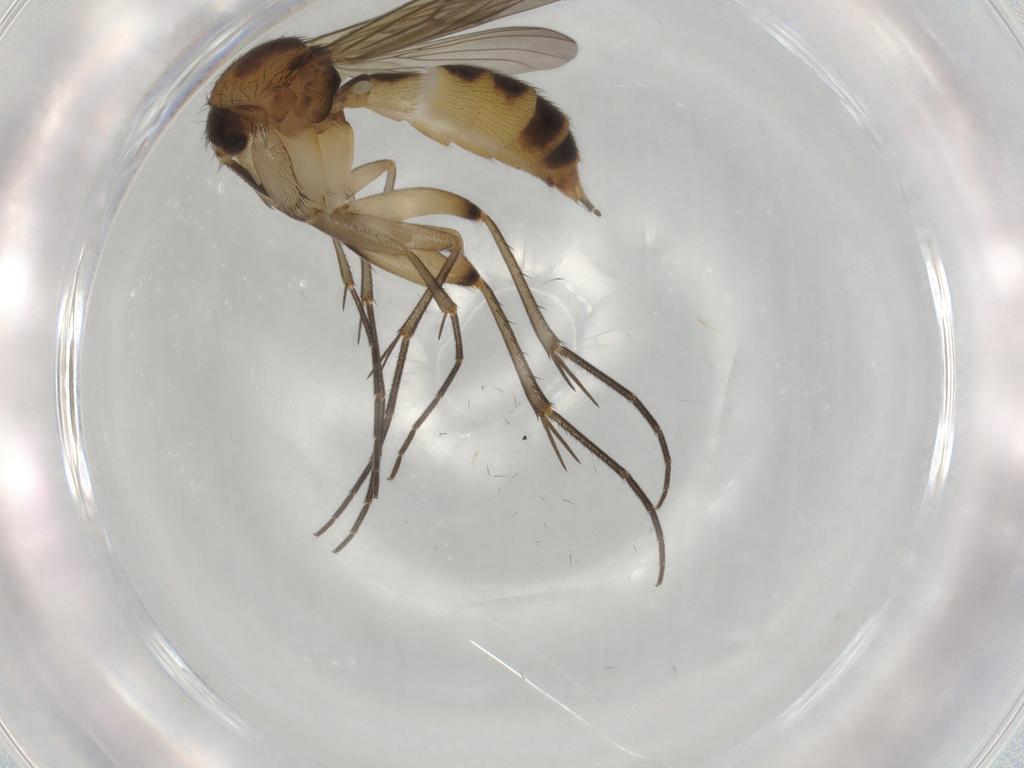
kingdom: Animalia
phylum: Arthropoda
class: Insecta
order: Diptera
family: Mycetophilidae
